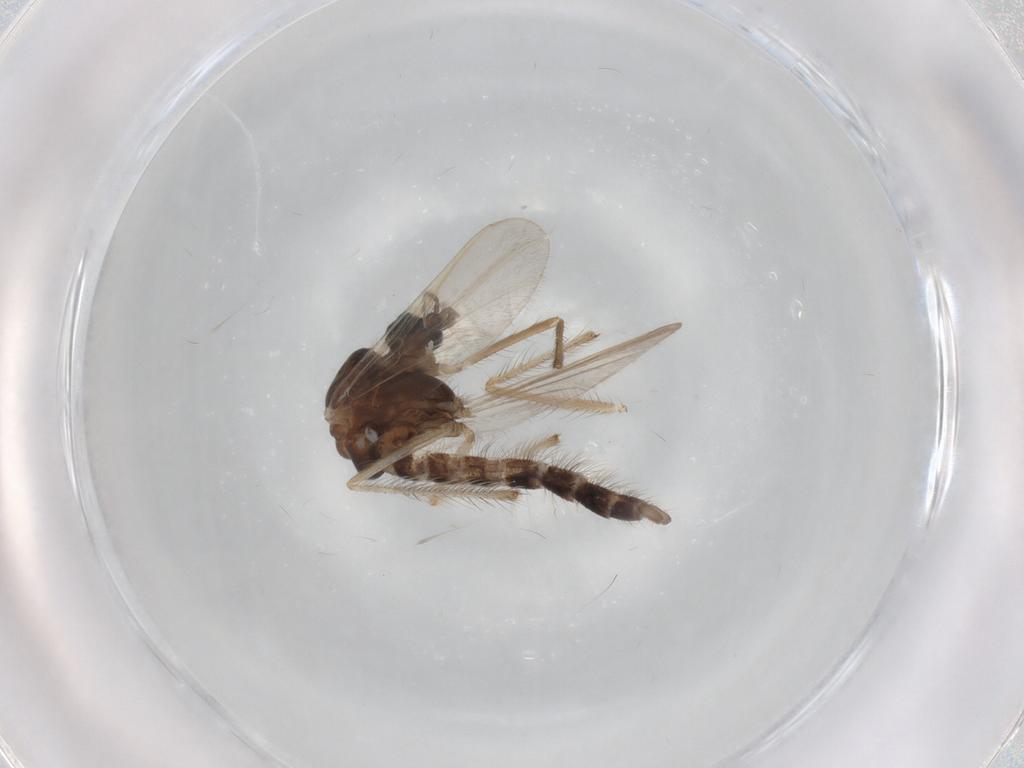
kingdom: Animalia
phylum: Arthropoda
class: Insecta
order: Diptera
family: Chironomidae
